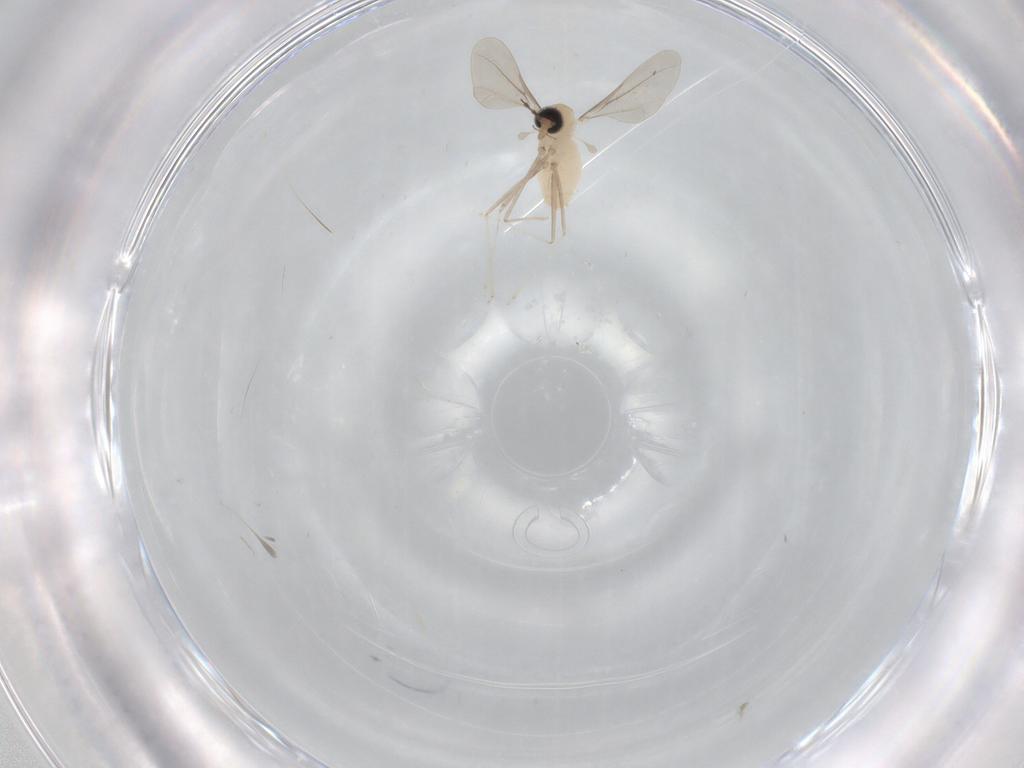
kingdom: Animalia
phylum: Arthropoda
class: Insecta
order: Diptera
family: Cecidomyiidae
